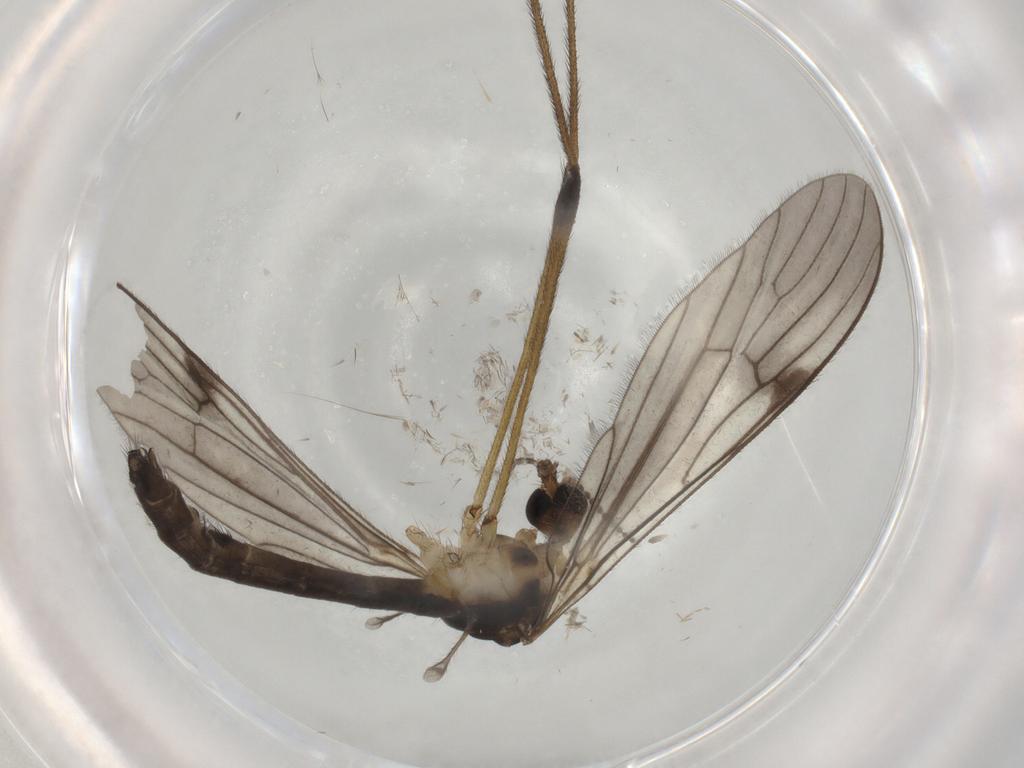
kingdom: Animalia
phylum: Arthropoda
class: Insecta
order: Diptera
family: Limoniidae
